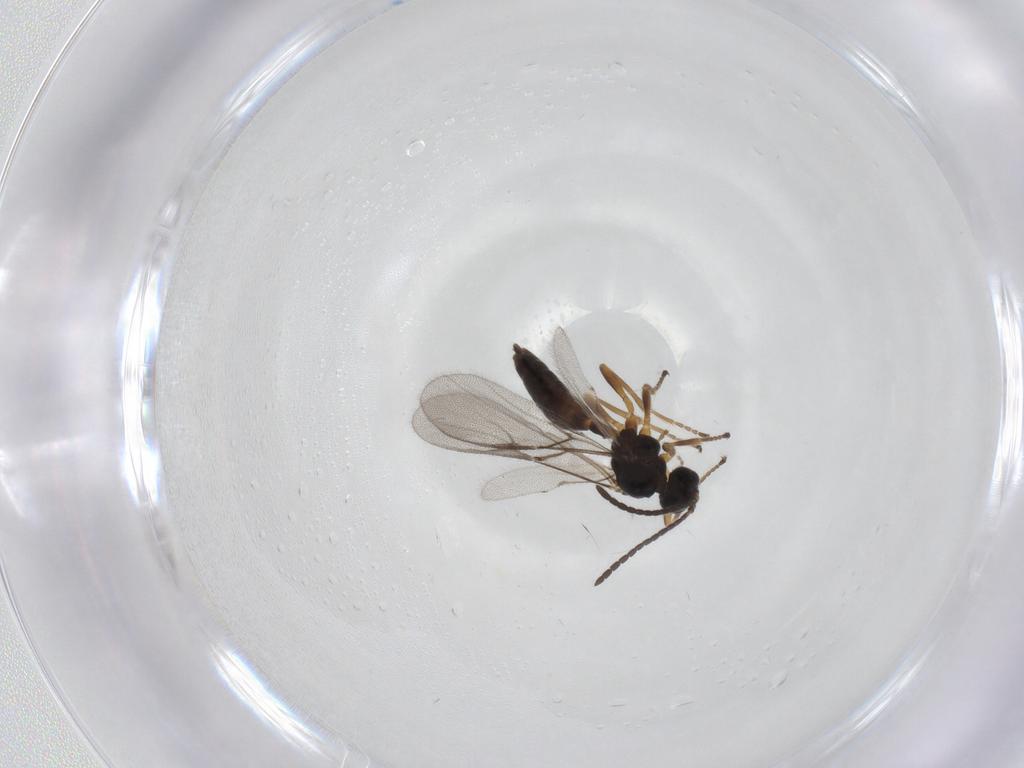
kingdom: Animalia
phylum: Arthropoda
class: Insecta
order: Hymenoptera
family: Braconidae
